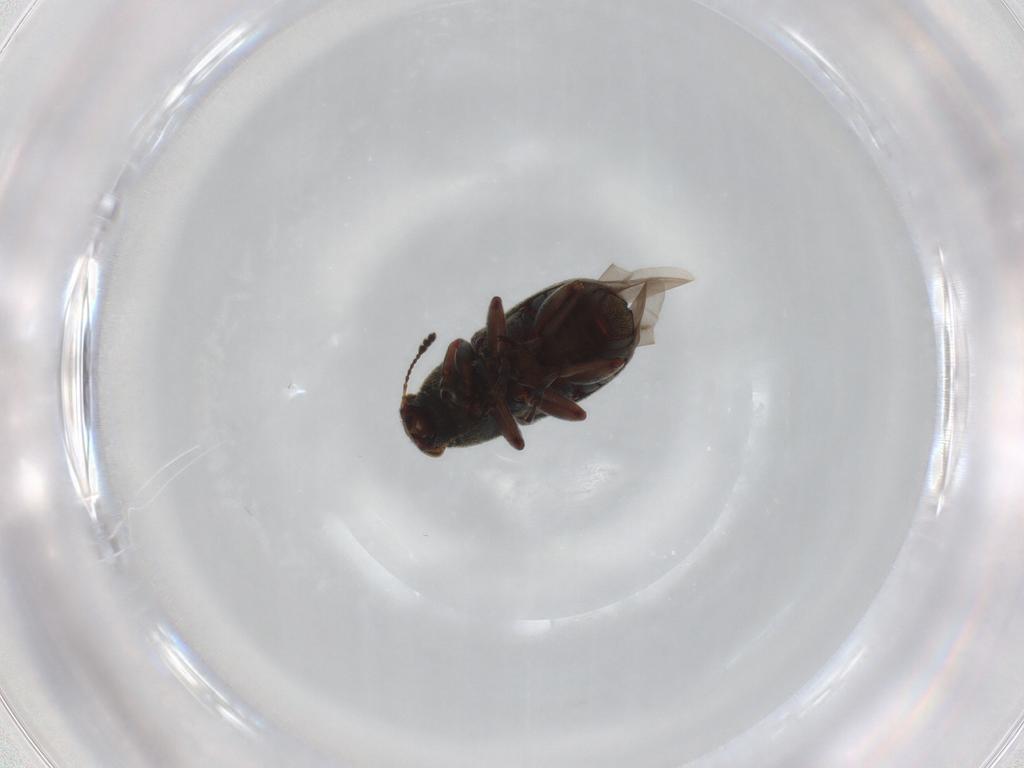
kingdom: Animalia
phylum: Arthropoda
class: Insecta
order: Coleoptera
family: Anthribidae
